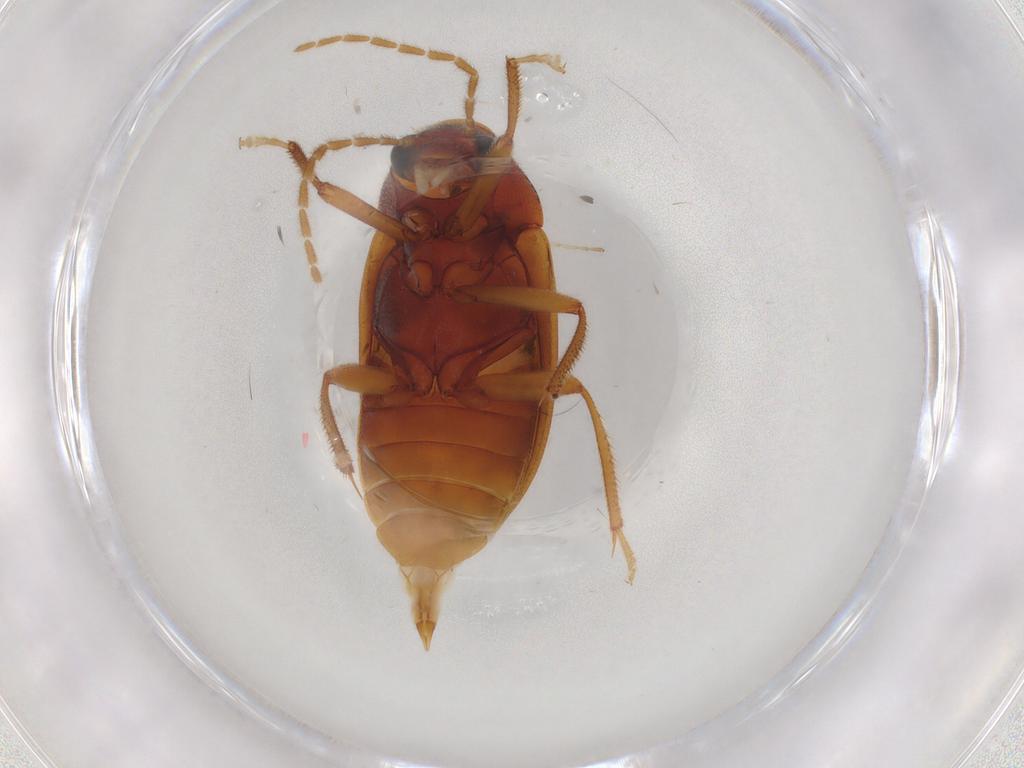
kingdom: Animalia
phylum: Arthropoda
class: Insecta
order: Coleoptera
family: Ptilodactylidae
